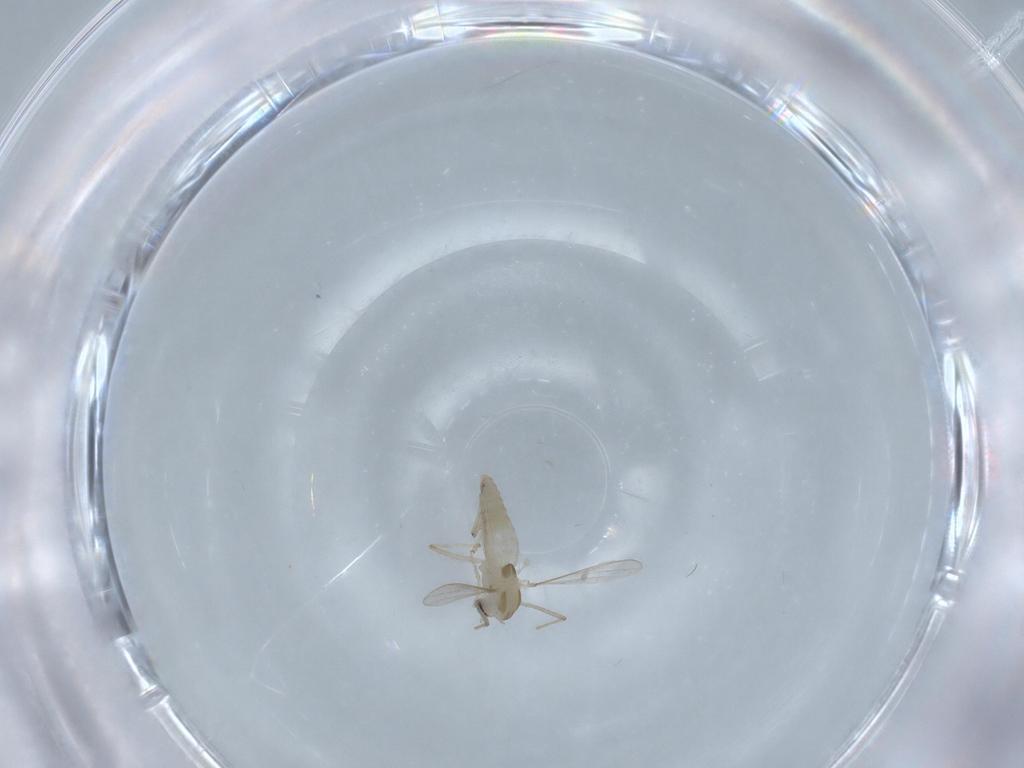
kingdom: Animalia
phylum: Arthropoda
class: Insecta
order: Diptera
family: Chironomidae
